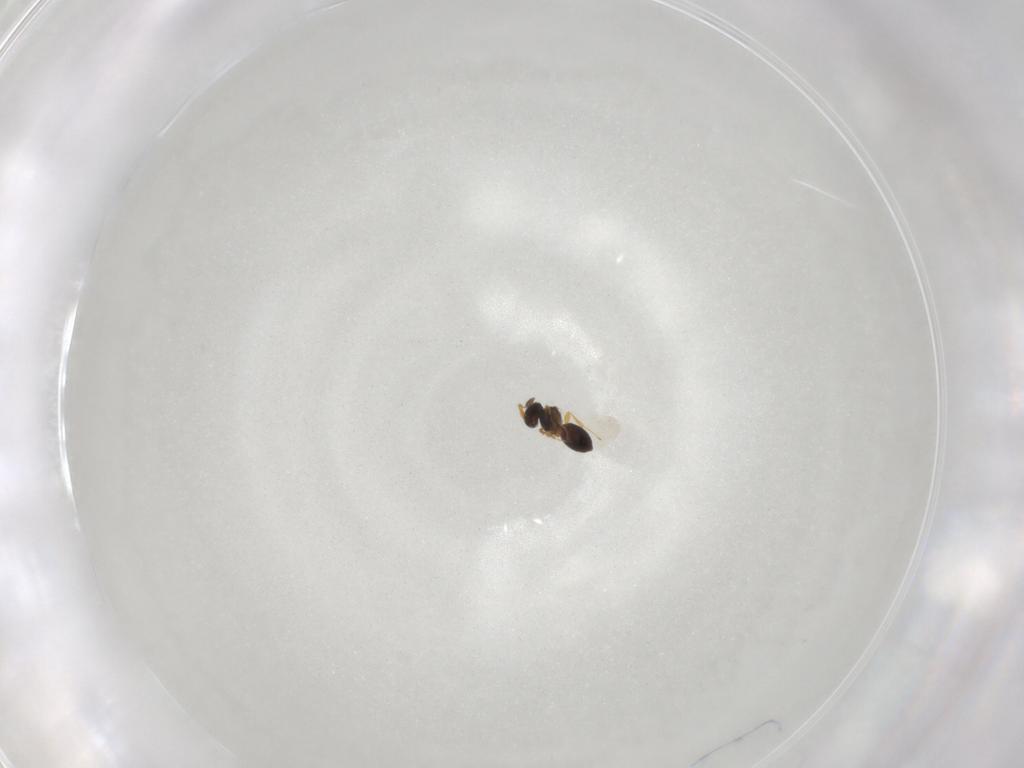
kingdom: Animalia
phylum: Arthropoda
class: Insecta
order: Hymenoptera
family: Platygastridae
